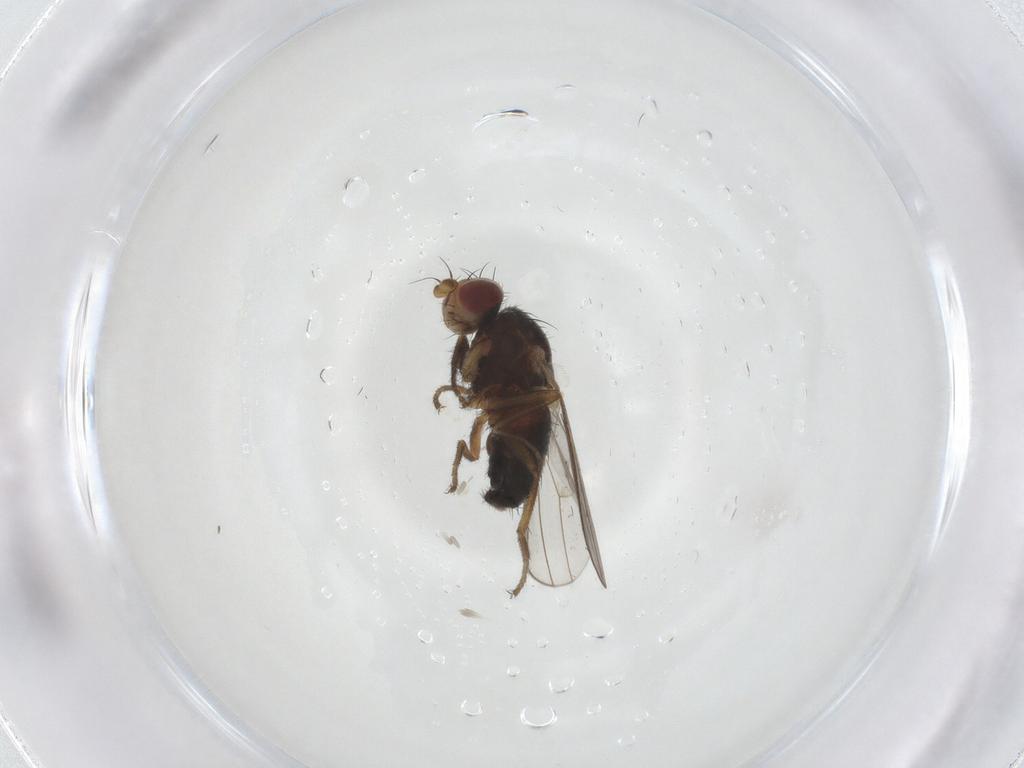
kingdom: Animalia
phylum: Arthropoda
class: Insecta
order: Diptera
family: Heleomyzidae
